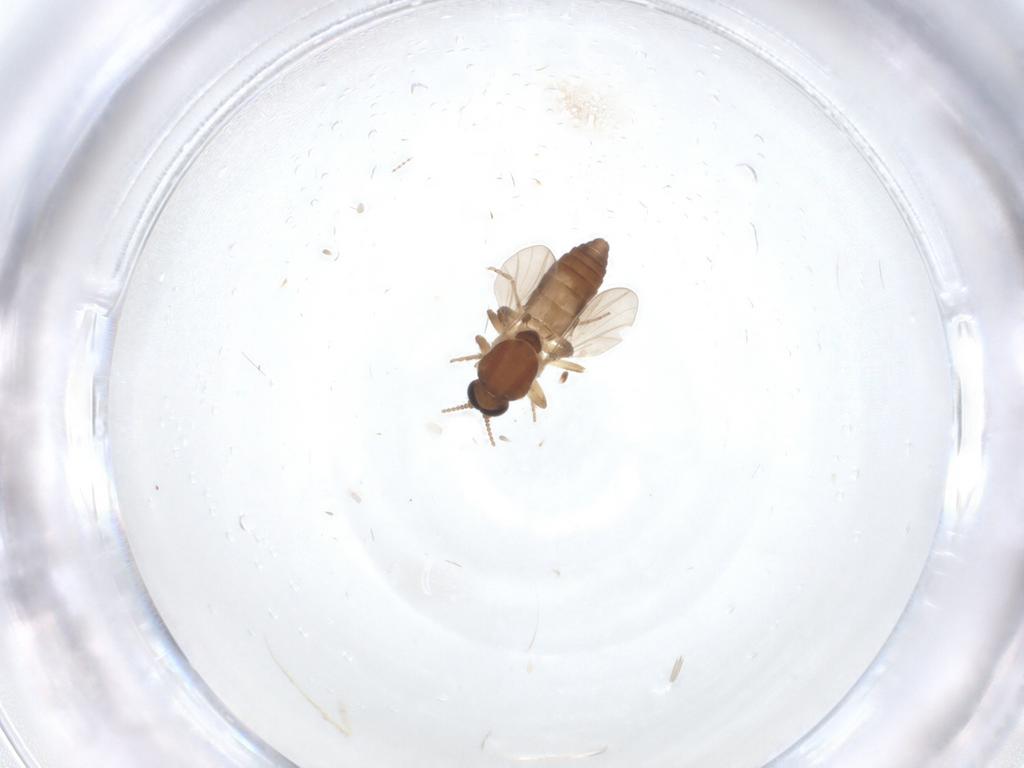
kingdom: Animalia
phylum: Arthropoda
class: Insecta
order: Diptera
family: Ceratopogonidae
